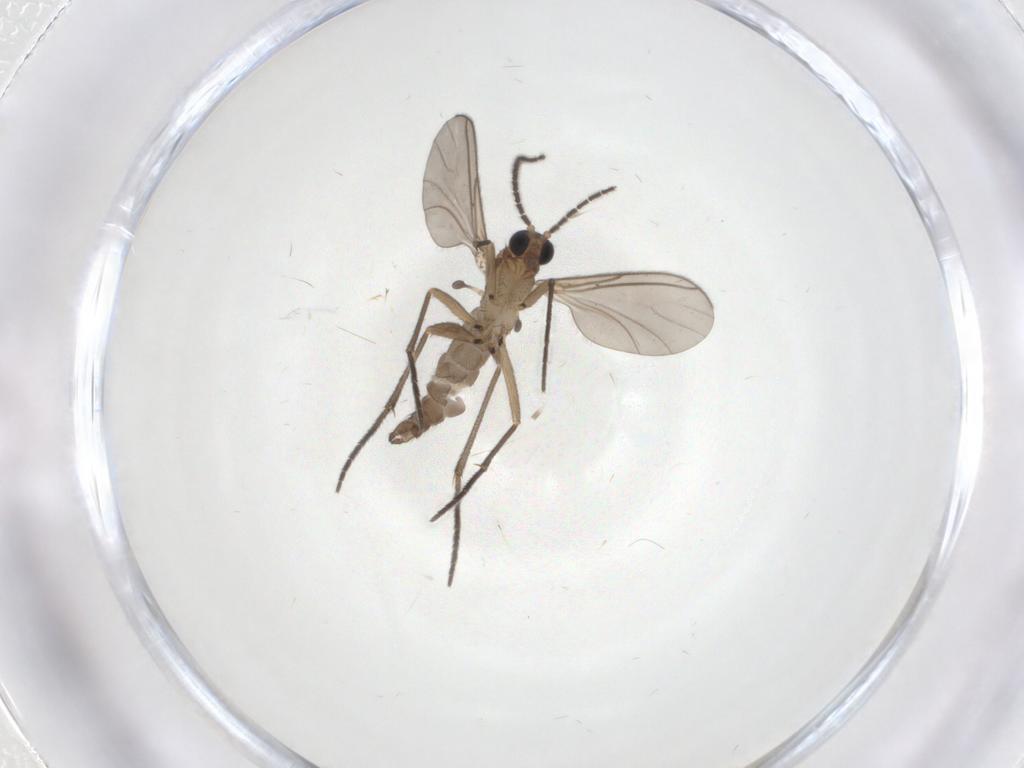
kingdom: Animalia
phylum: Arthropoda
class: Insecta
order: Diptera
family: Sciaridae
